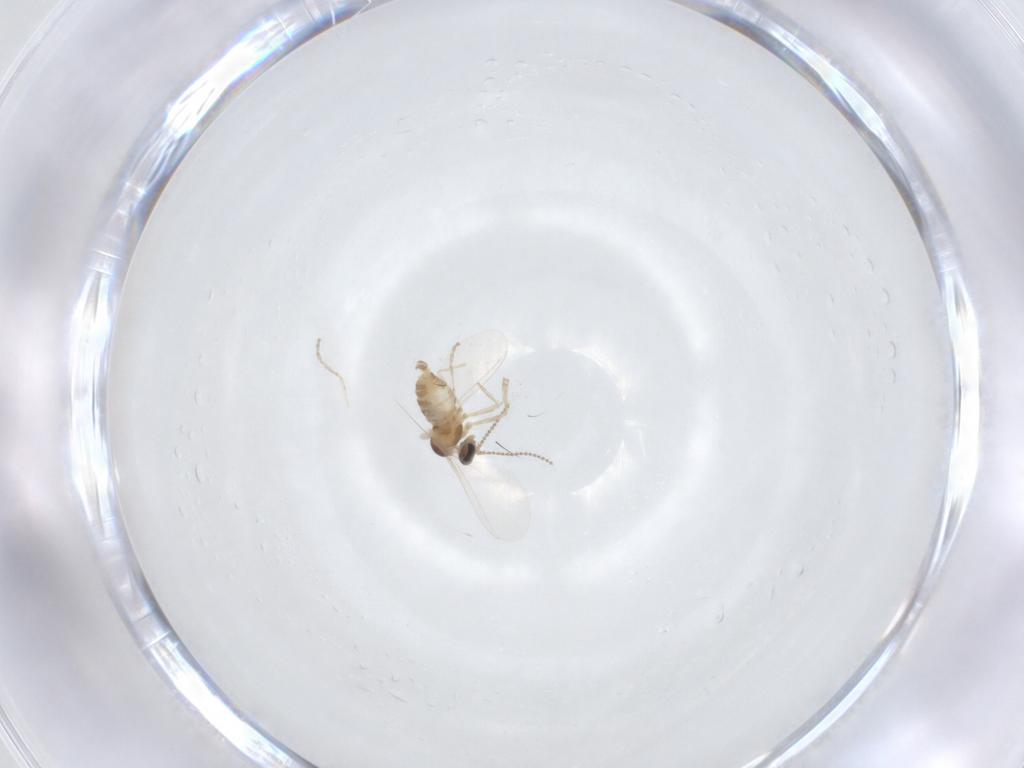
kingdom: Animalia
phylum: Arthropoda
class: Insecta
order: Diptera
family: Cecidomyiidae
